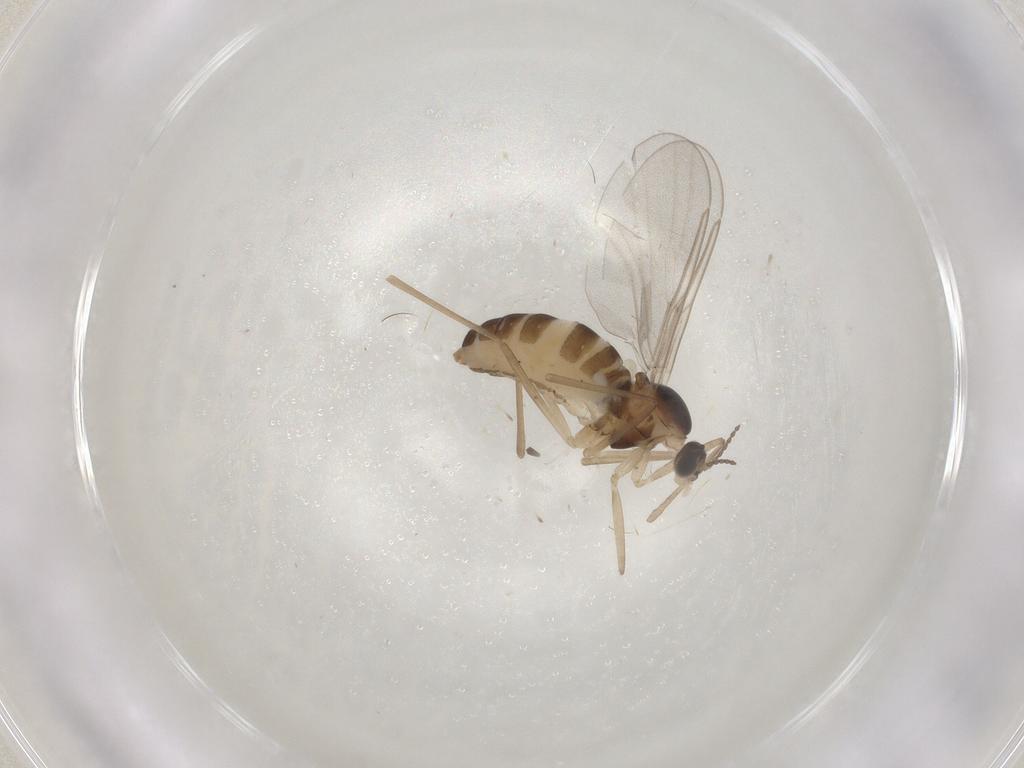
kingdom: Animalia
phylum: Arthropoda
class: Insecta
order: Diptera
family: Cecidomyiidae
